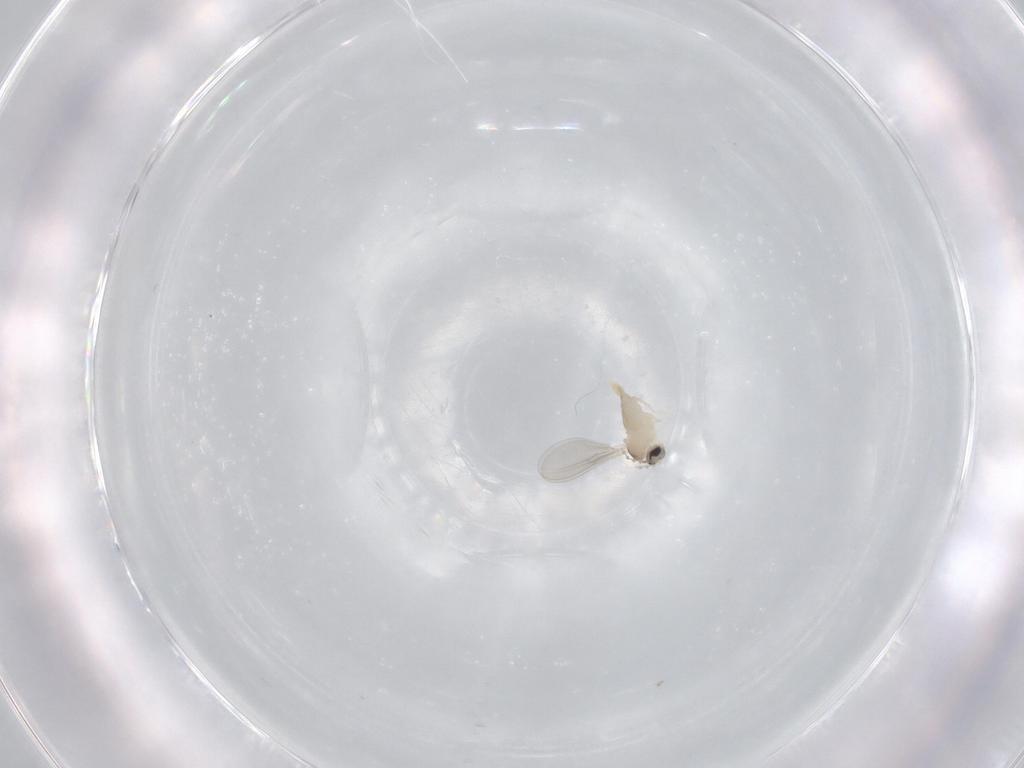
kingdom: Animalia
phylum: Arthropoda
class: Insecta
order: Diptera
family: Cecidomyiidae
